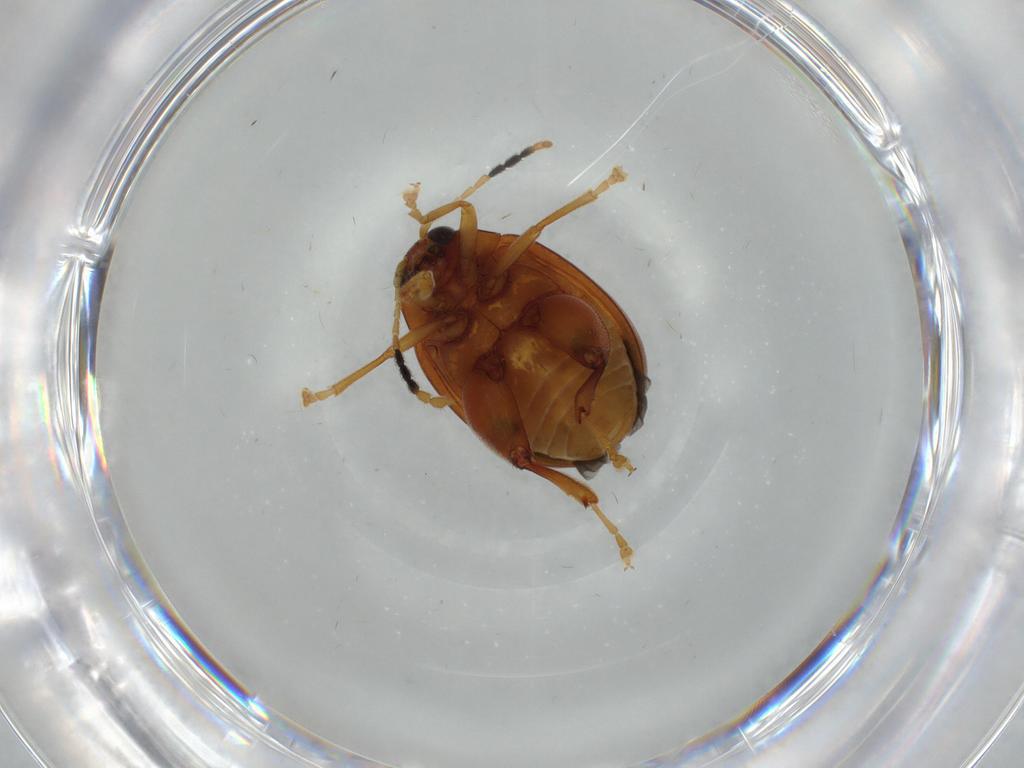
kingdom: Animalia
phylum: Arthropoda
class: Insecta
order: Coleoptera
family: Chrysomelidae
